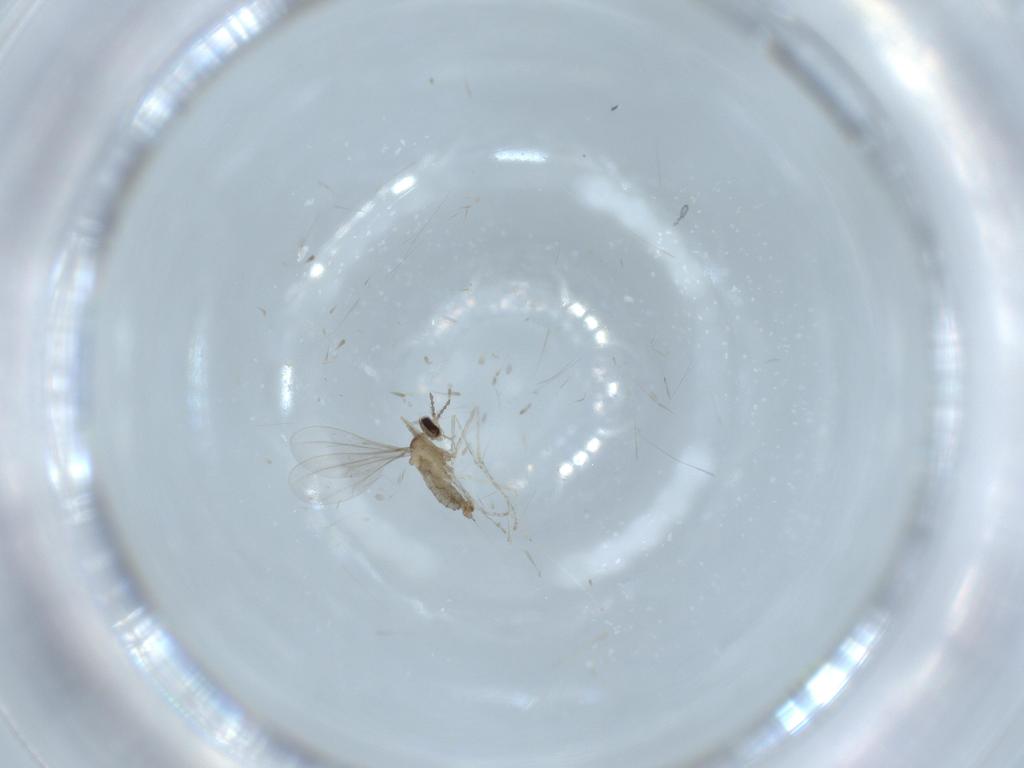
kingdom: Animalia
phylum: Arthropoda
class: Insecta
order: Diptera
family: Cecidomyiidae
